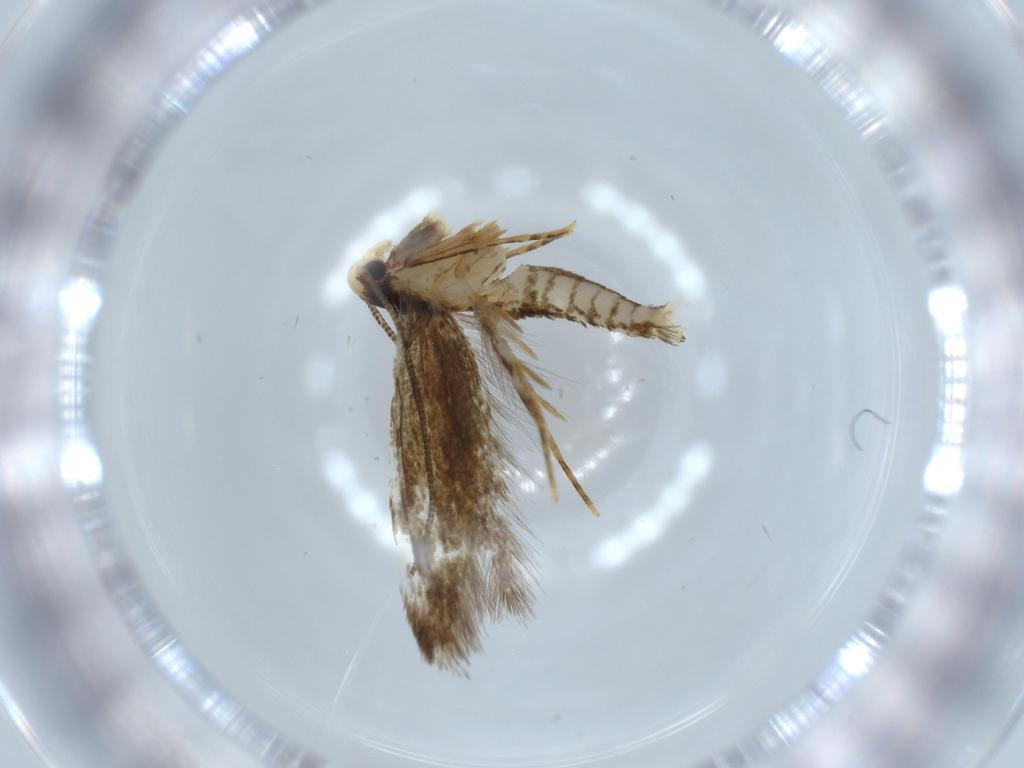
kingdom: Animalia
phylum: Arthropoda
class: Insecta
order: Lepidoptera
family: Tineidae
